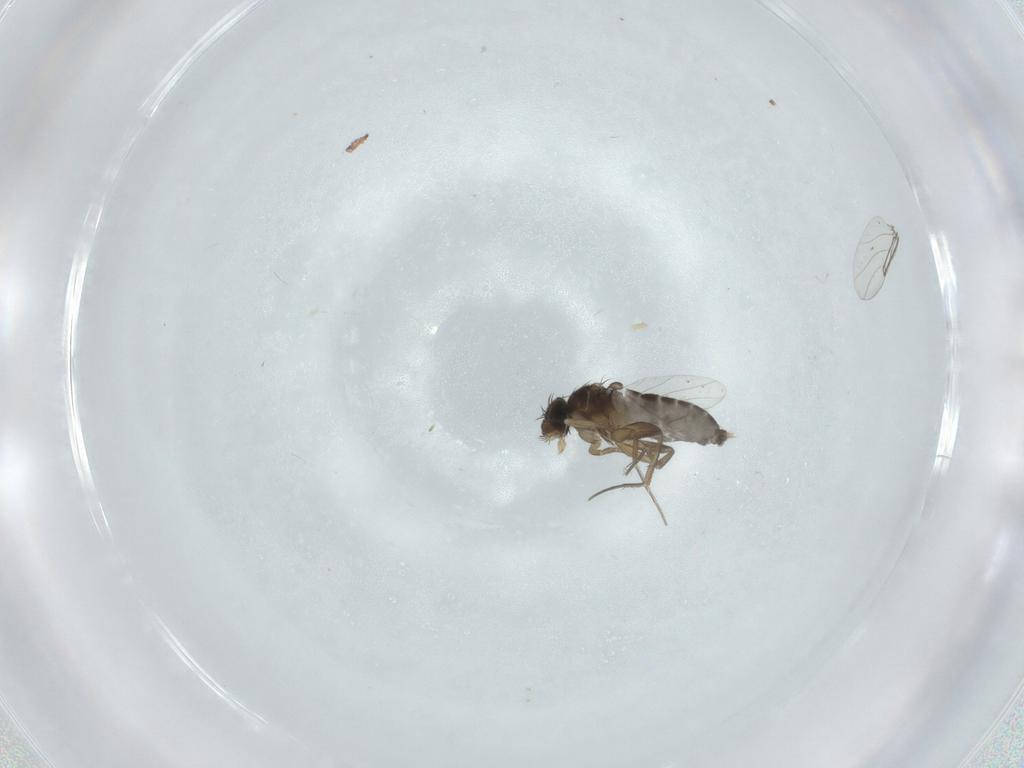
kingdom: Animalia
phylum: Arthropoda
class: Insecta
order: Diptera
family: Phoridae
